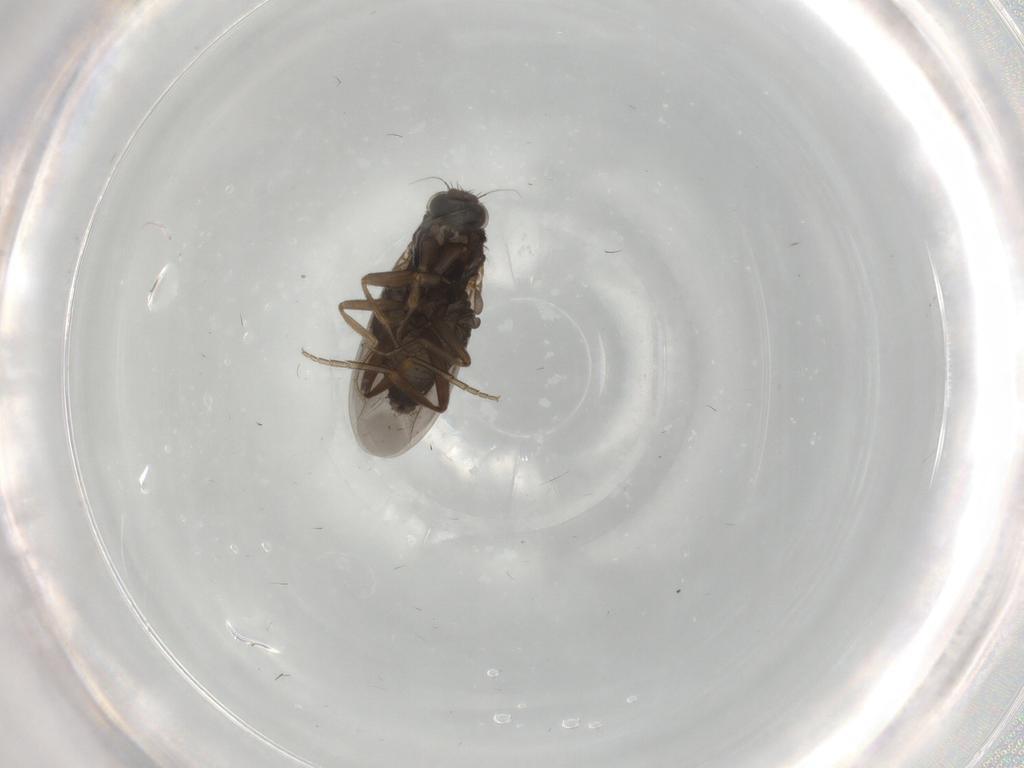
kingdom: Animalia
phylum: Arthropoda
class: Insecta
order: Diptera
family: Phoridae
